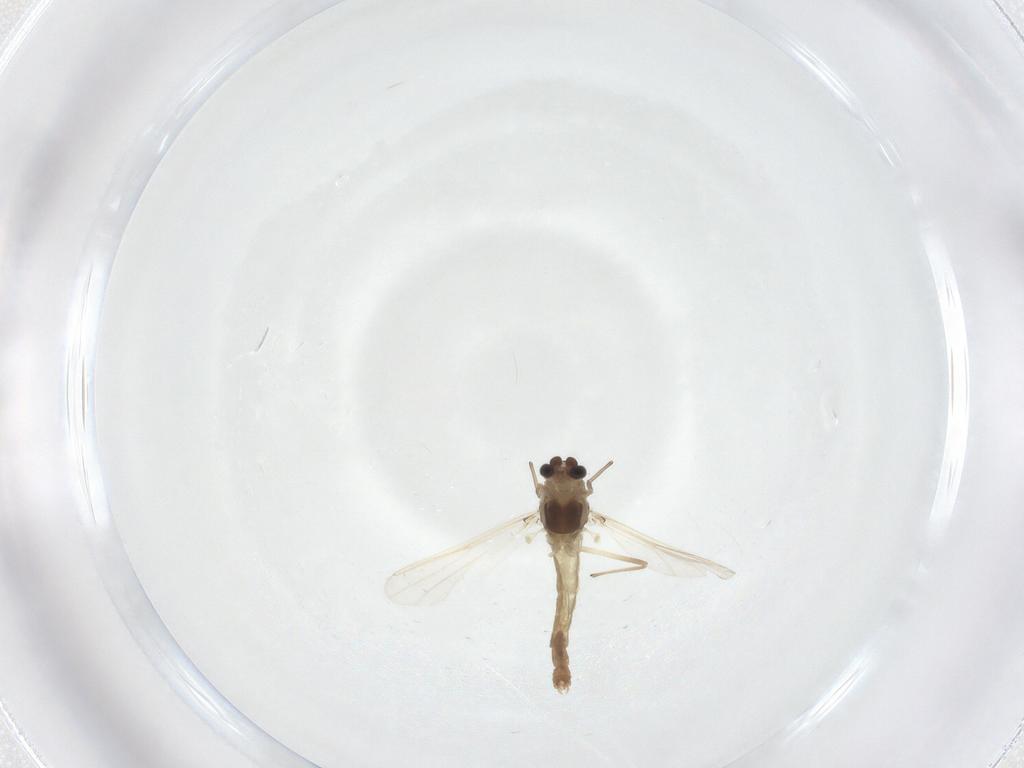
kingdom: Animalia
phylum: Arthropoda
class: Insecta
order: Diptera
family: Chironomidae
